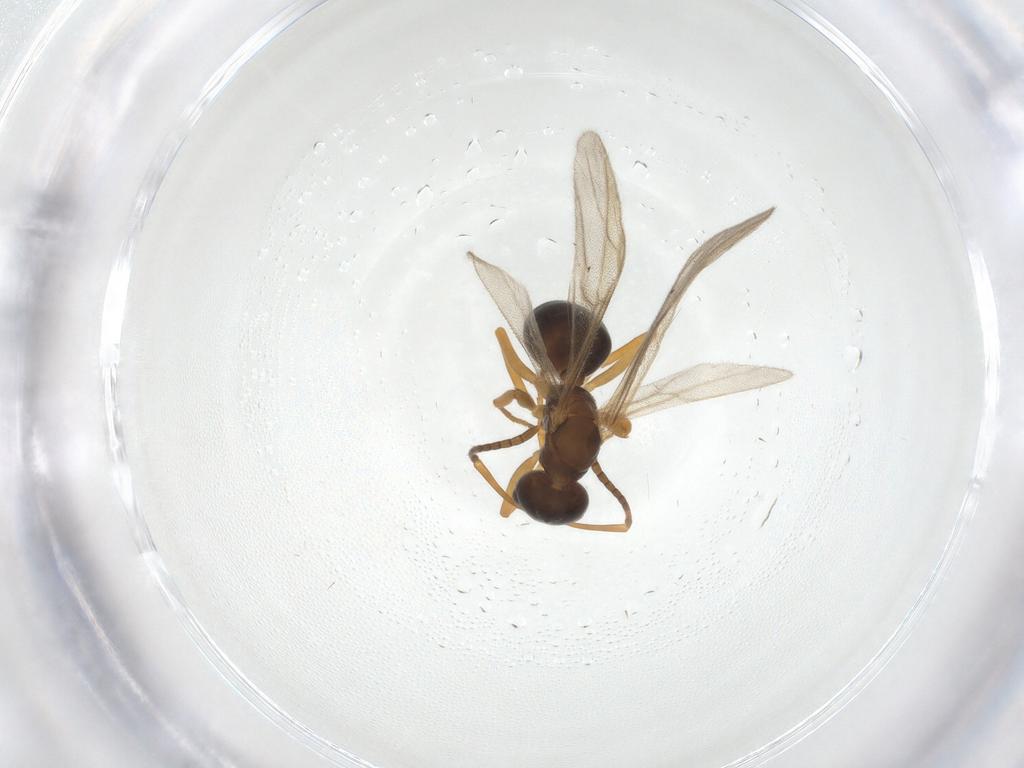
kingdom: Animalia
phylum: Arthropoda
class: Insecta
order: Hymenoptera
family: Formicidae
